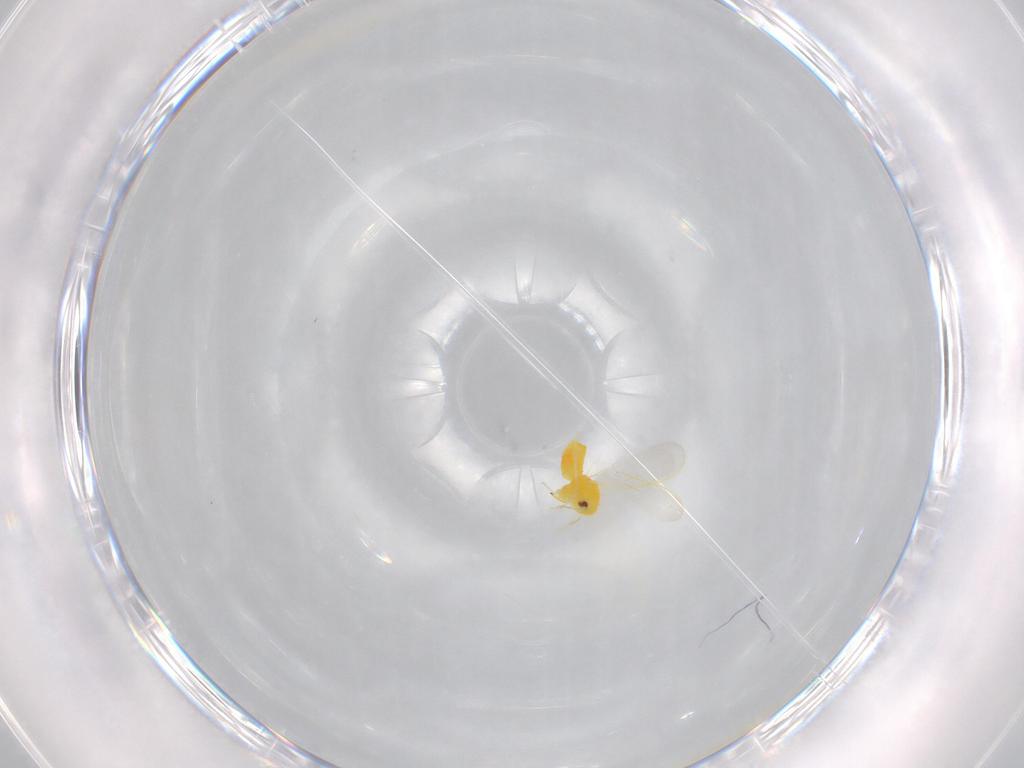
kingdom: Animalia
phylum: Arthropoda
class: Insecta
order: Hemiptera
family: Aleyrodidae
